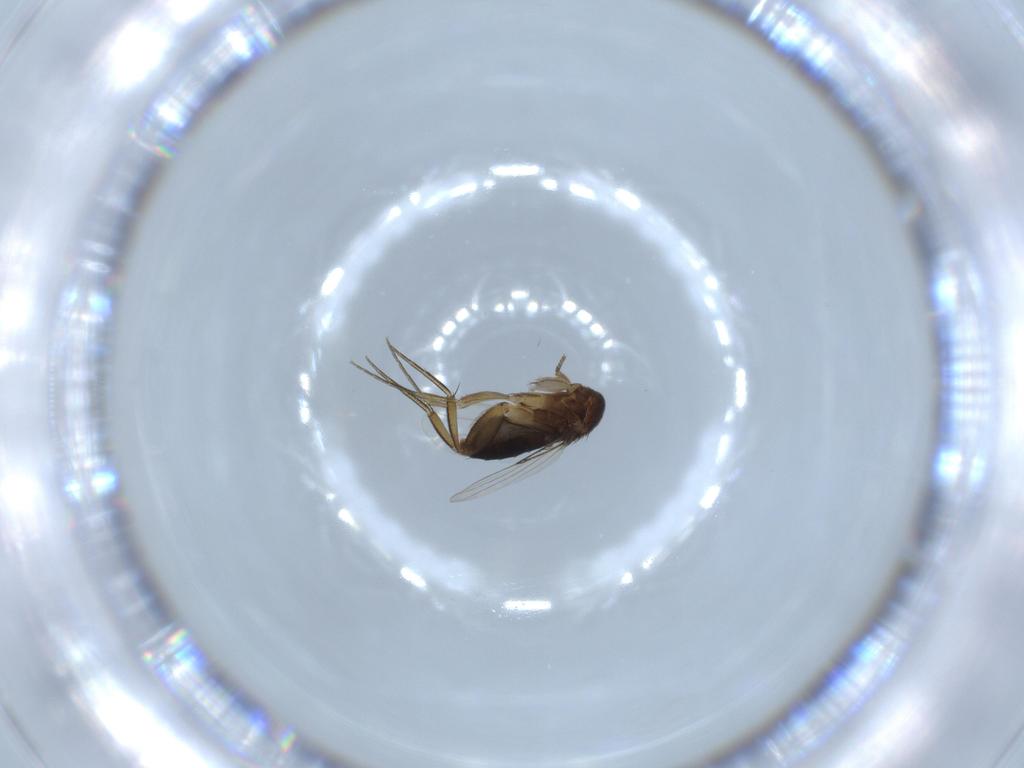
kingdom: Animalia
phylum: Arthropoda
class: Insecta
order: Diptera
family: Phoridae
